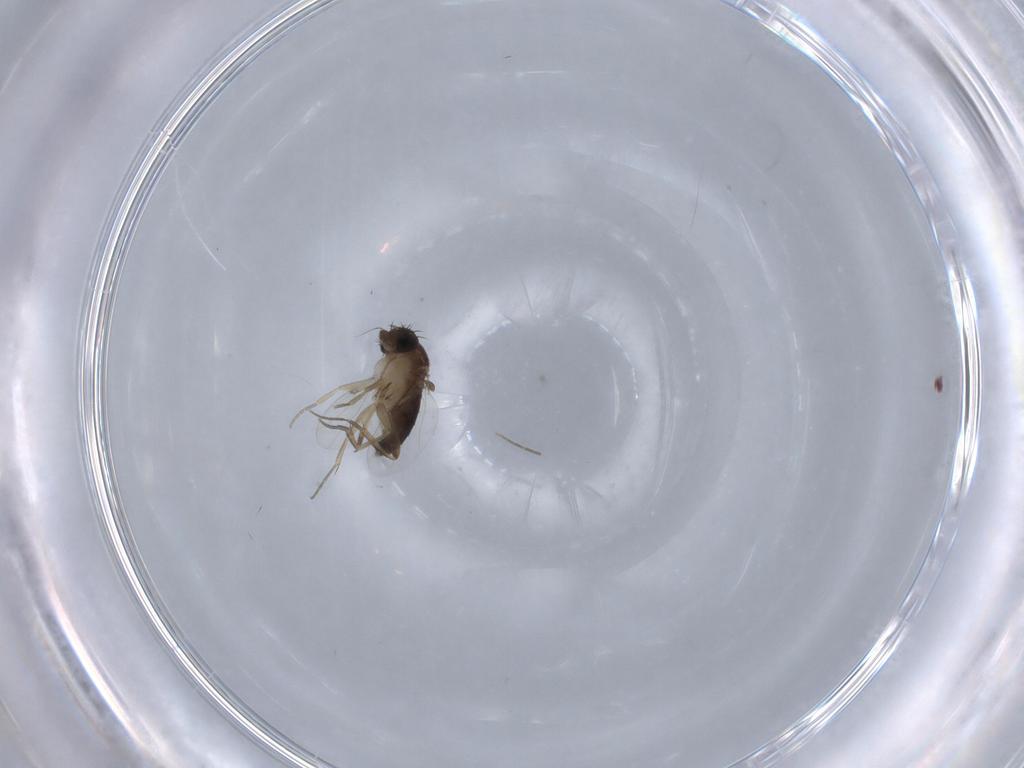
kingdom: Animalia
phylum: Arthropoda
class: Insecta
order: Diptera
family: Phoridae
